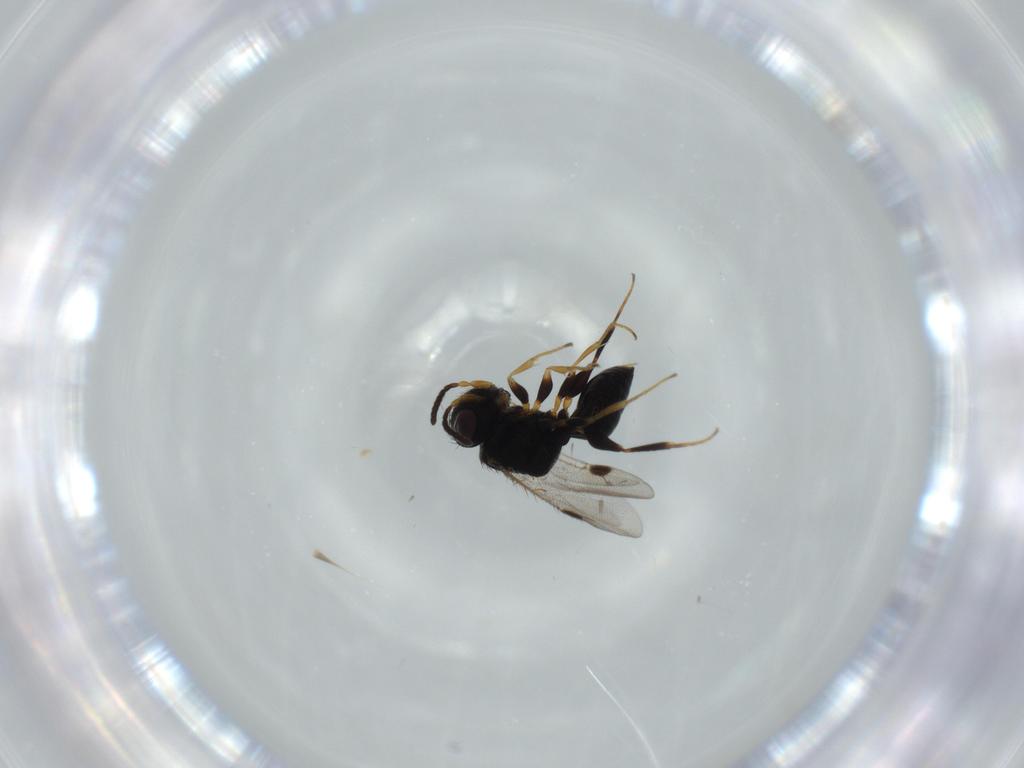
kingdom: Animalia
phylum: Arthropoda
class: Insecta
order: Hymenoptera
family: Dryinidae
